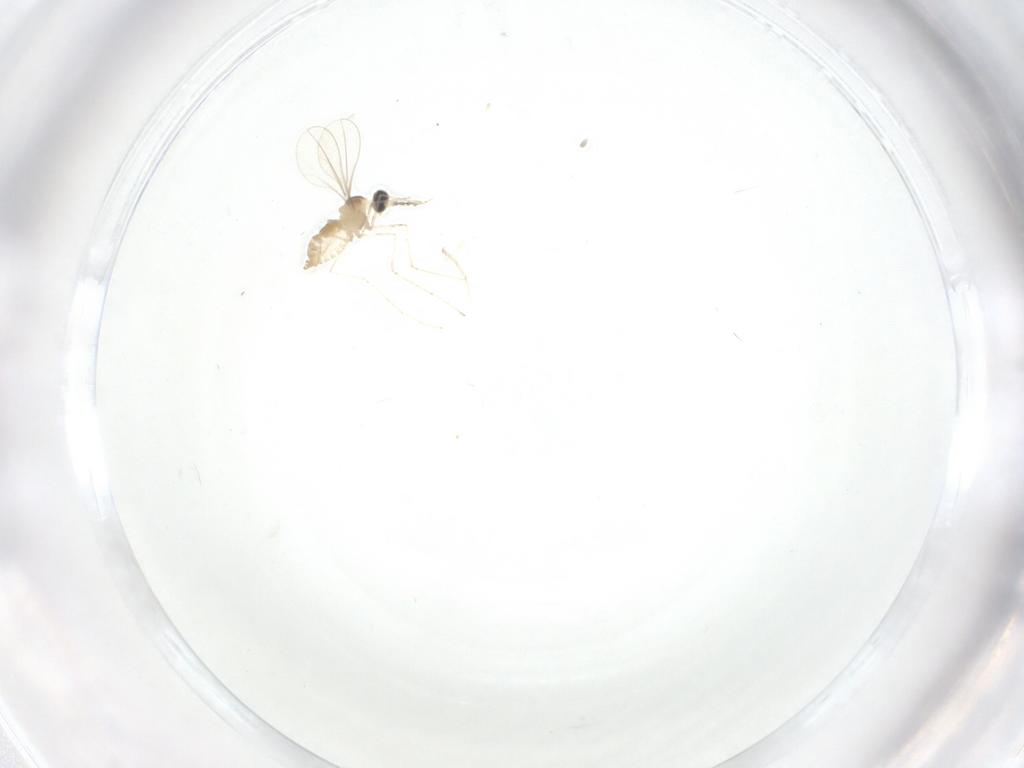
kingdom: Animalia
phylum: Arthropoda
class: Insecta
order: Diptera
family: Cecidomyiidae
